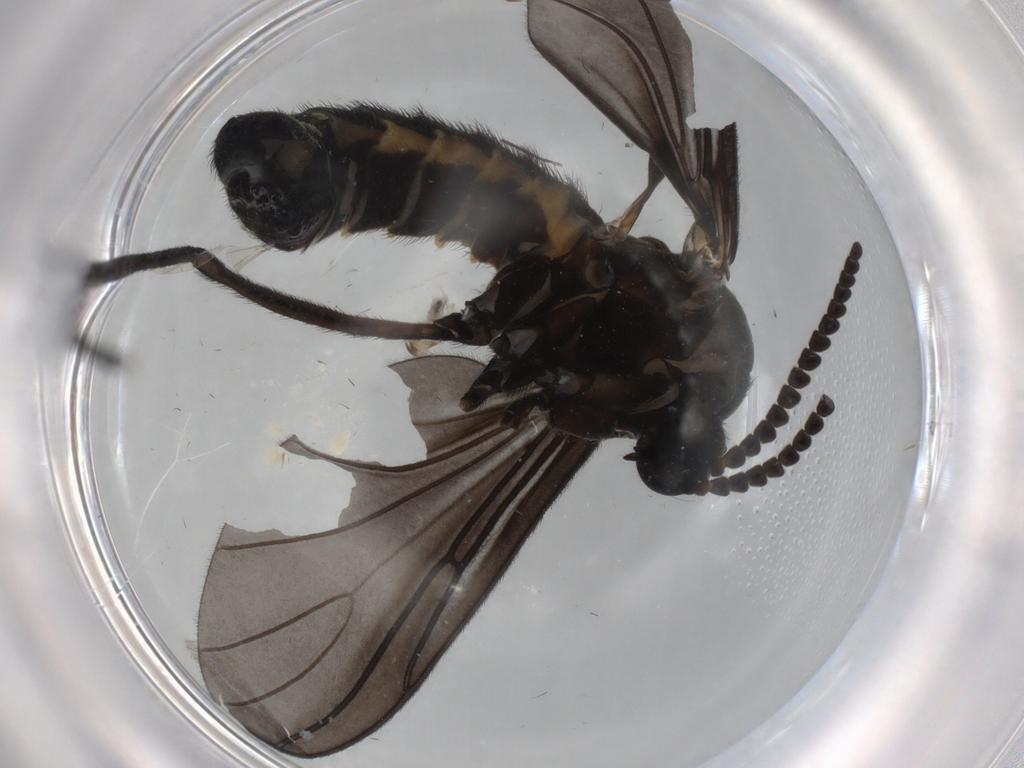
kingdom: Animalia
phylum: Arthropoda
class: Insecta
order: Diptera
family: Sciaridae
